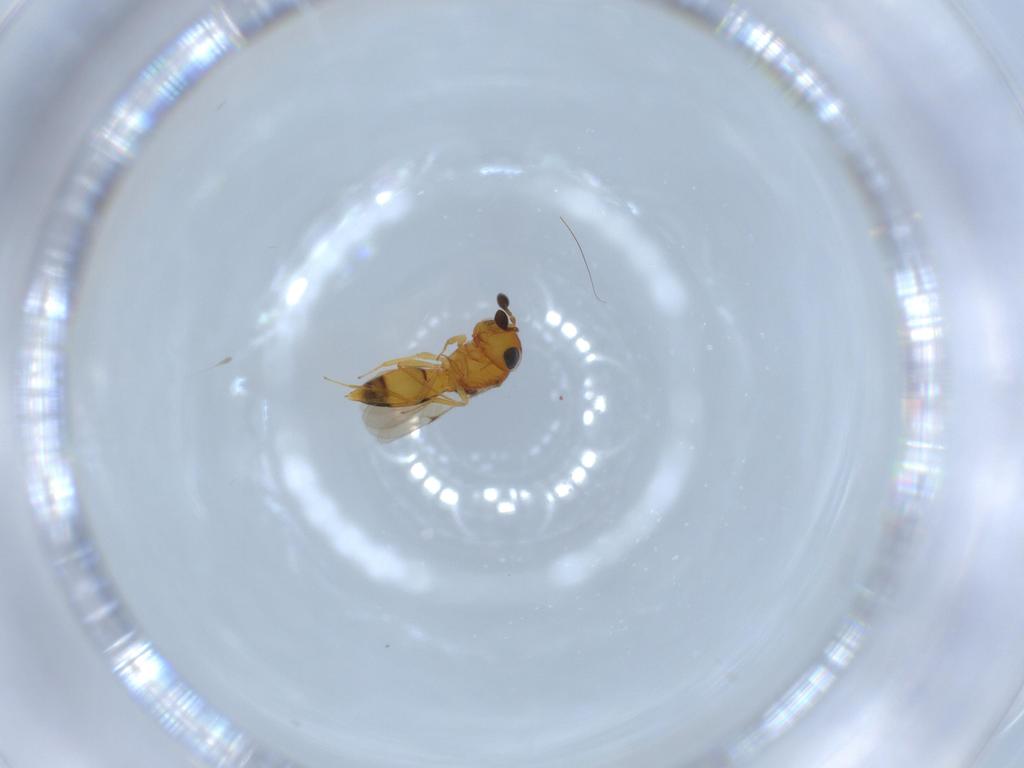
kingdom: Animalia
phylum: Arthropoda
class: Insecta
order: Hymenoptera
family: Scelionidae
